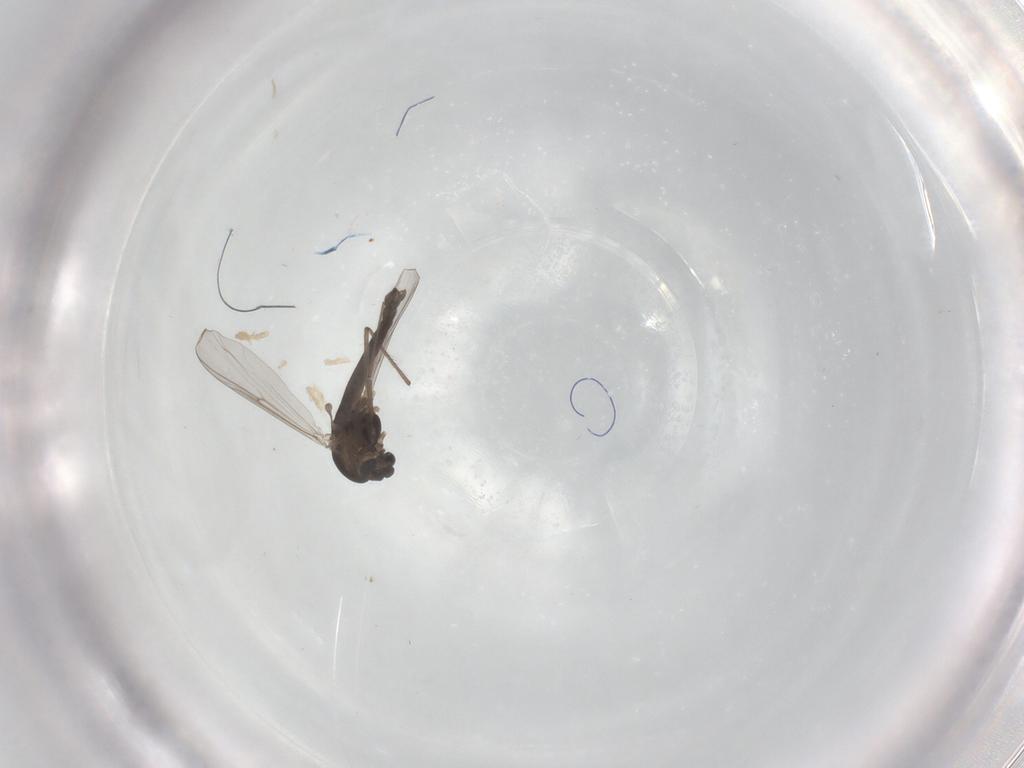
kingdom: Animalia
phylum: Arthropoda
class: Insecta
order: Diptera
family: Chironomidae
